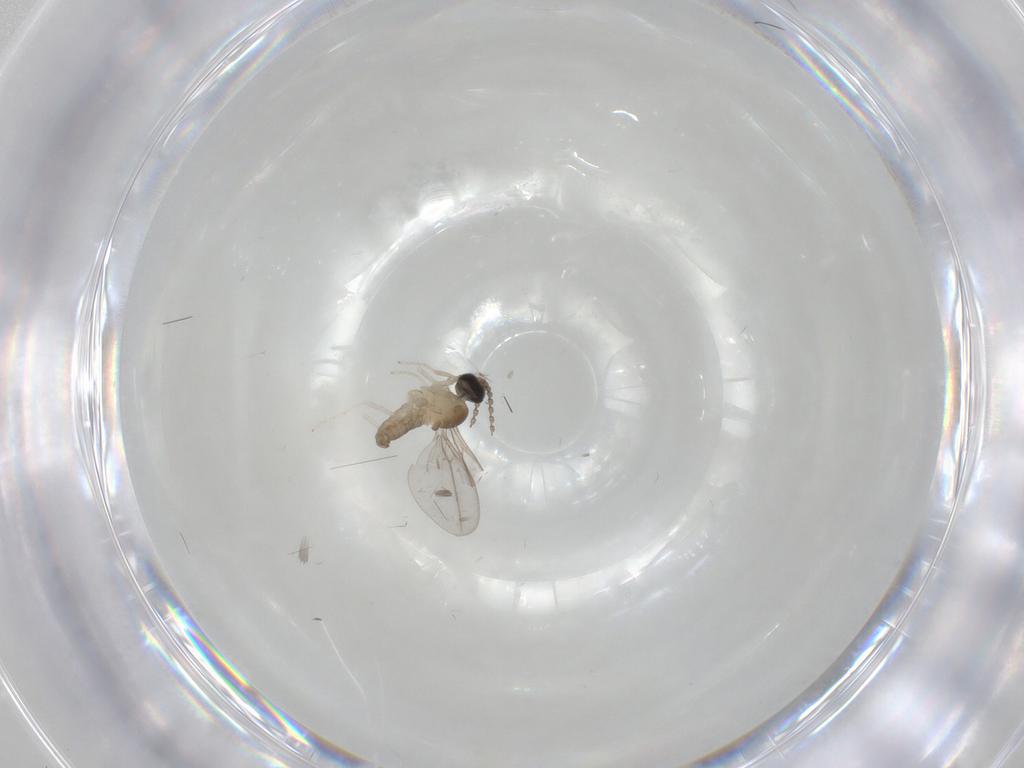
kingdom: Animalia
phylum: Arthropoda
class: Insecta
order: Diptera
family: Cecidomyiidae
